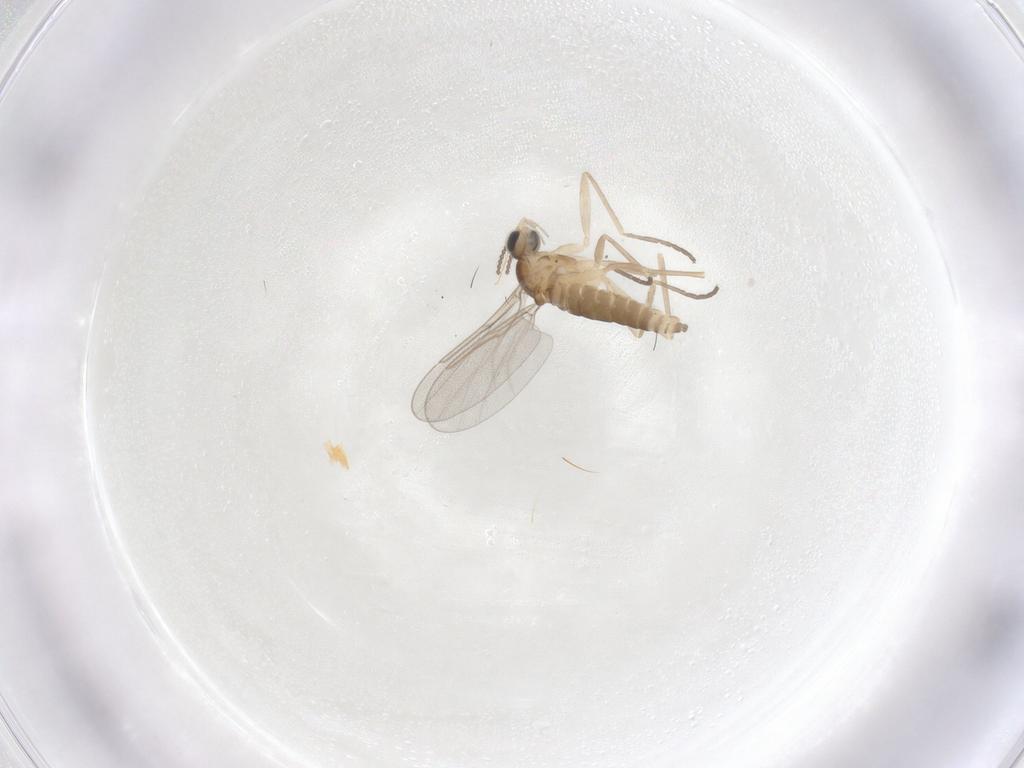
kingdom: Animalia
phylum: Arthropoda
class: Insecta
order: Diptera
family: Cecidomyiidae
